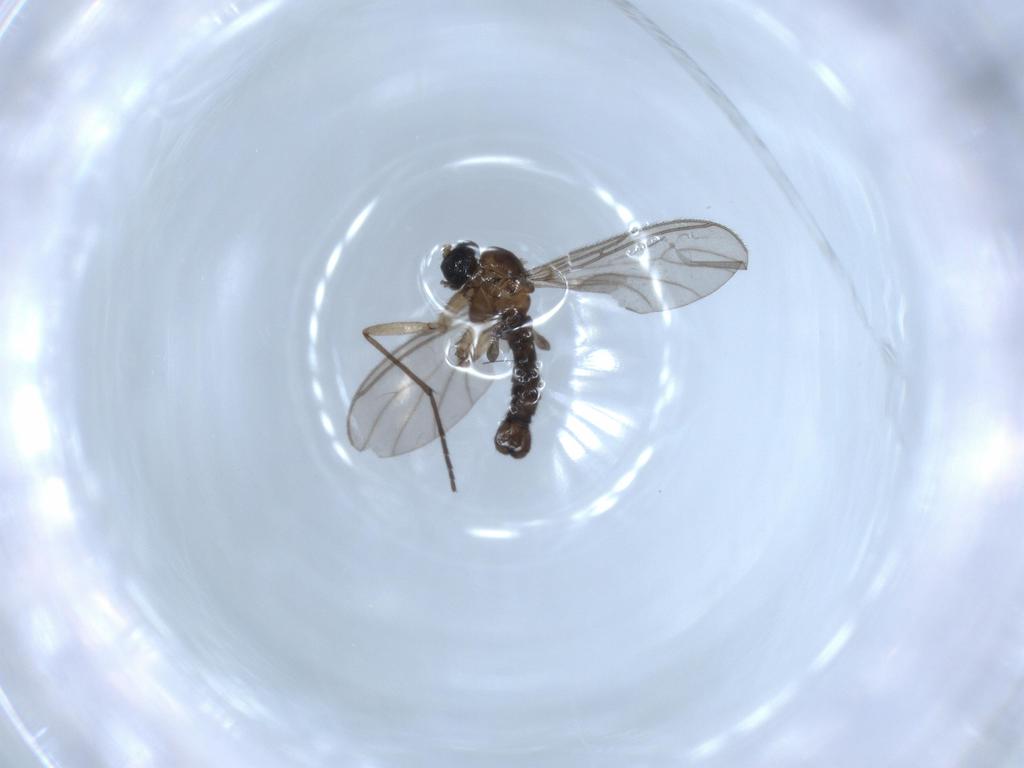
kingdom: Animalia
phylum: Arthropoda
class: Insecta
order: Diptera
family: Sciaridae
